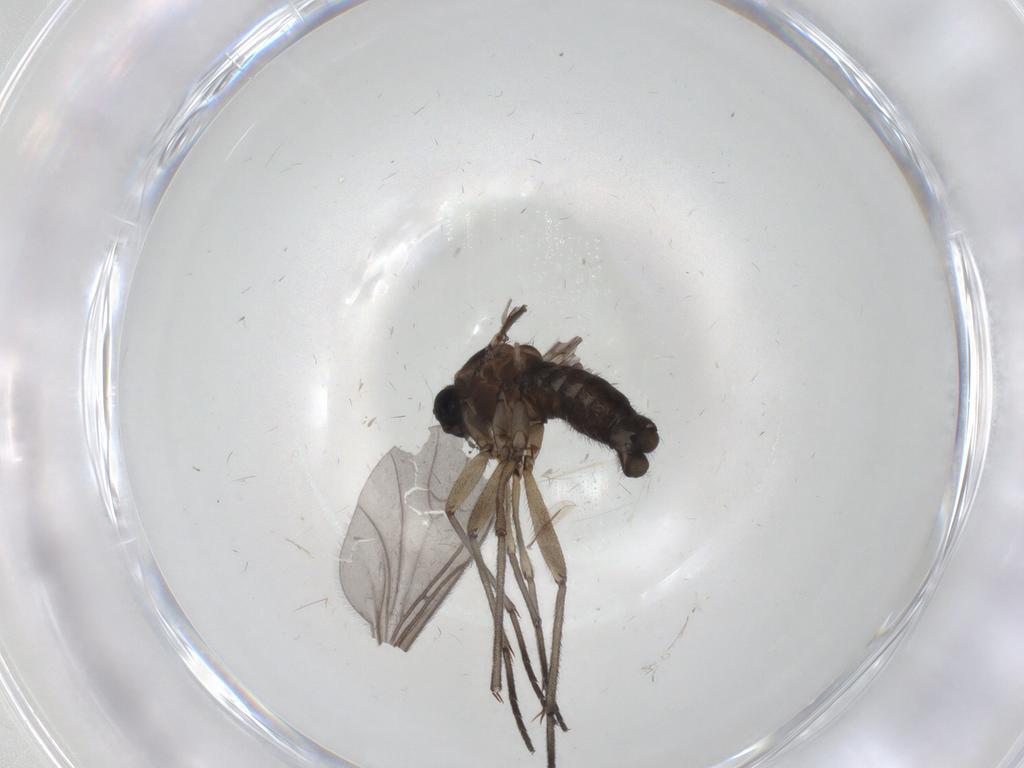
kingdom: Animalia
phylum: Arthropoda
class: Insecta
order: Diptera
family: Sciaridae
